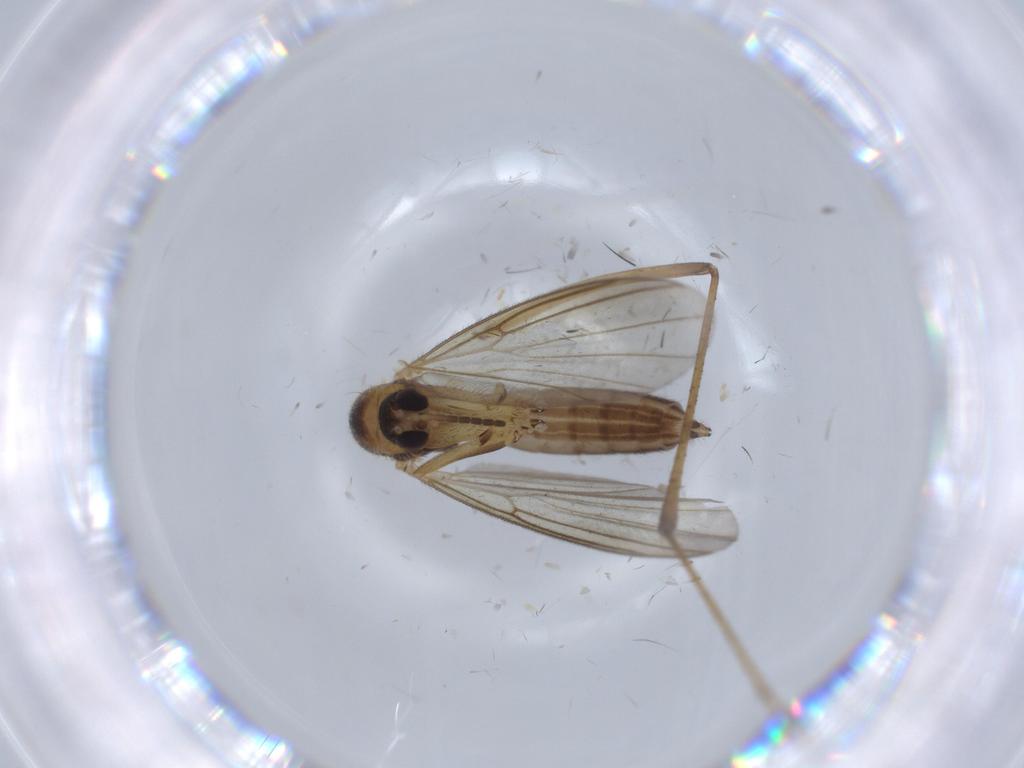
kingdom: Animalia
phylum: Arthropoda
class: Insecta
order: Diptera
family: Culicidae
